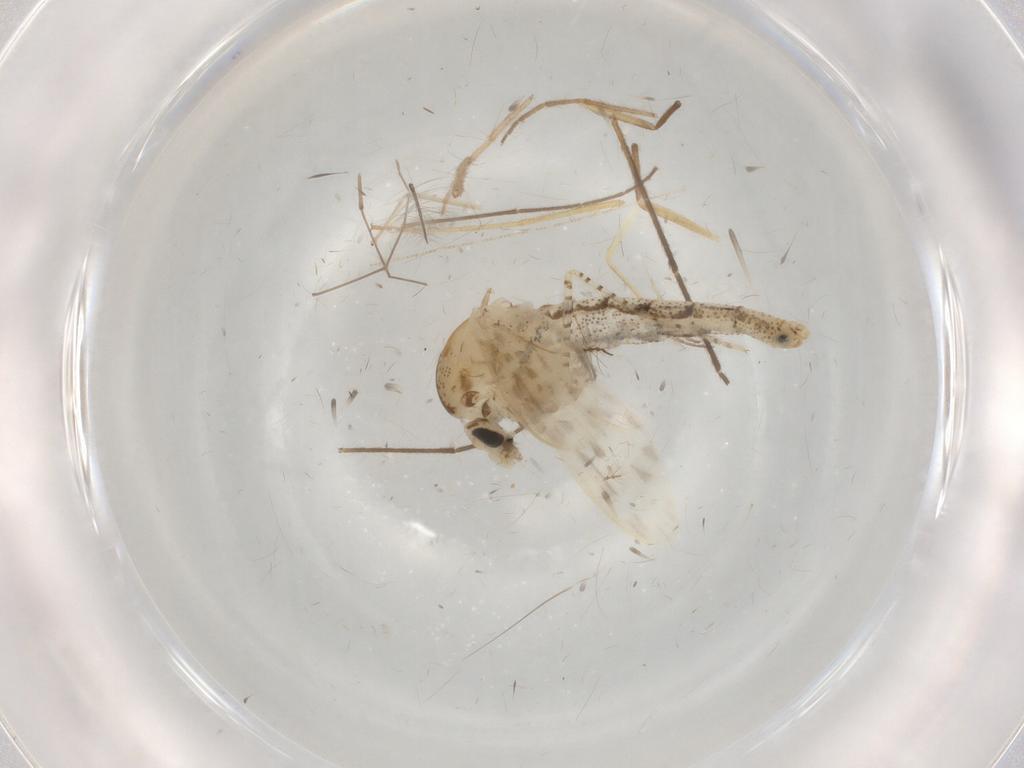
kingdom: Animalia
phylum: Arthropoda
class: Insecta
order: Diptera
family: Chaoboridae
